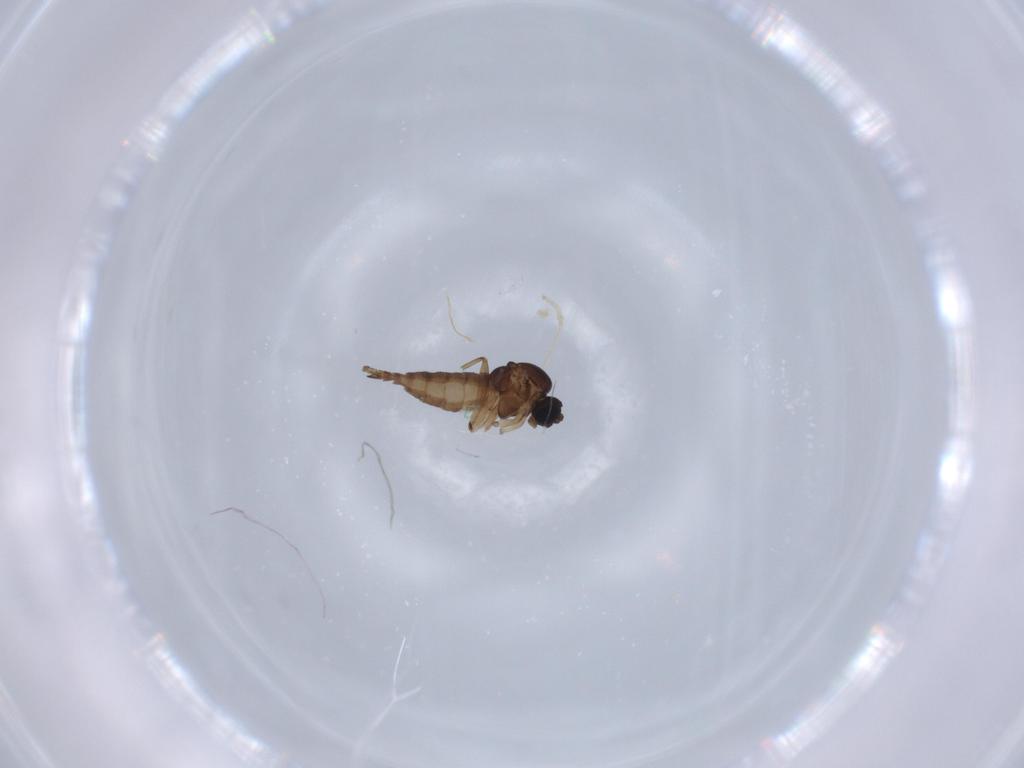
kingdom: Animalia
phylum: Arthropoda
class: Insecta
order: Diptera
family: Sciaridae
